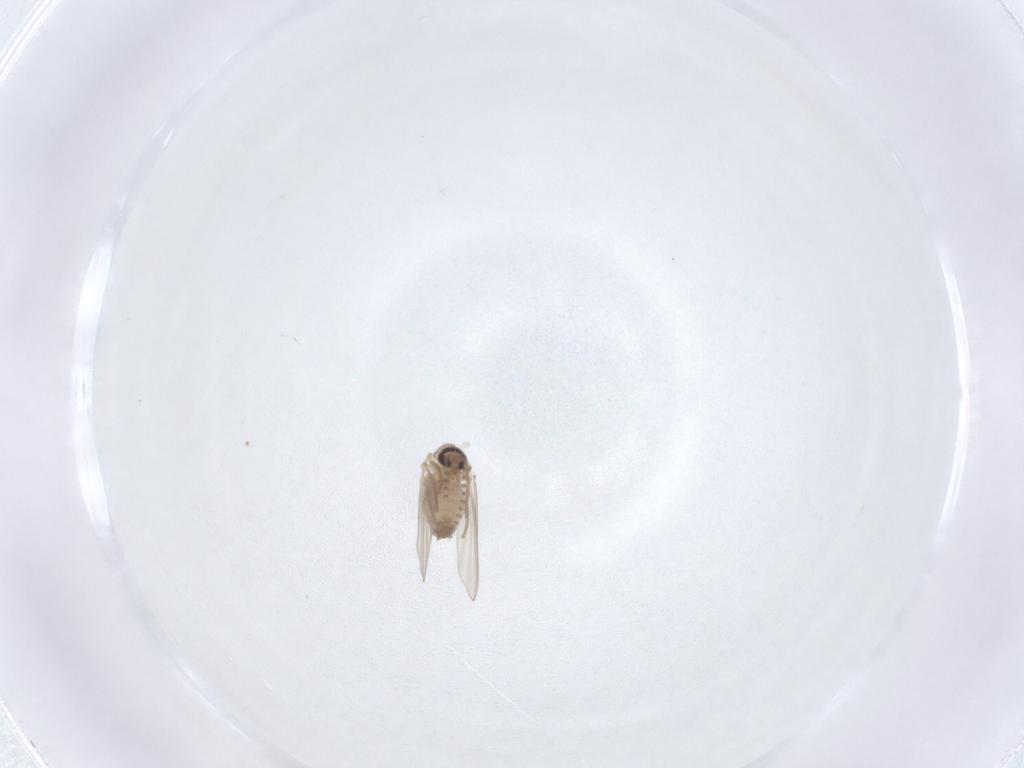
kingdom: Animalia
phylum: Arthropoda
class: Insecta
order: Diptera
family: Psychodidae
